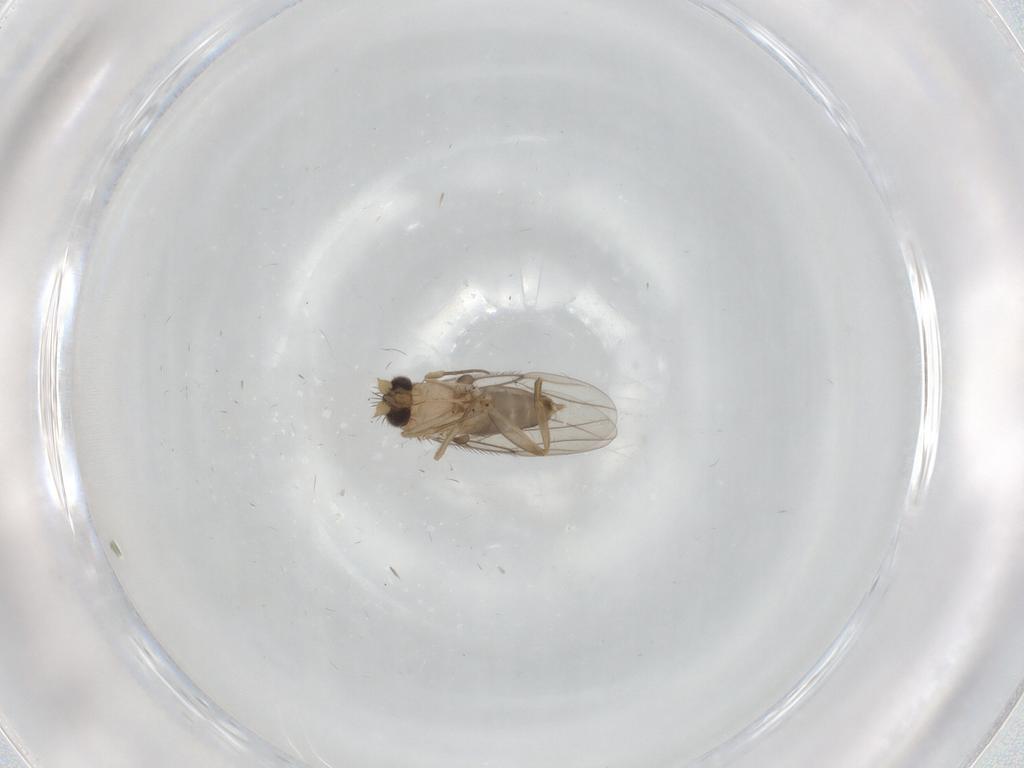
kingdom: Animalia
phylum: Arthropoda
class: Insecta
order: Diptera
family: Phoridae
